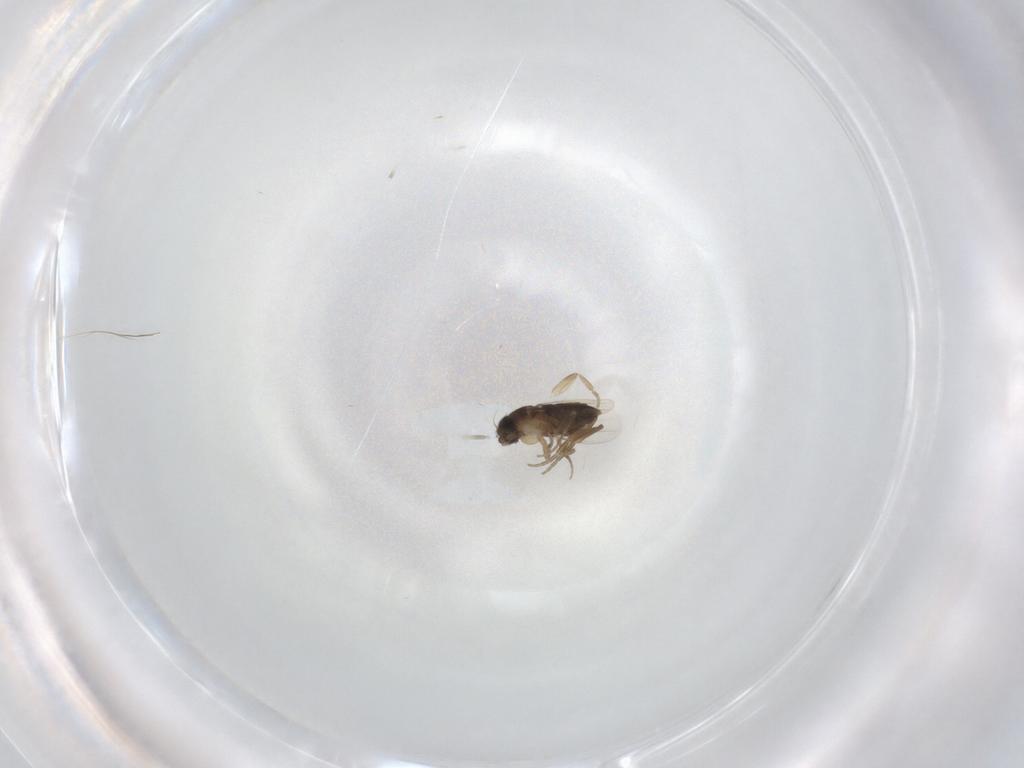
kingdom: Animalia
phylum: Arthropoda
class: Insecta
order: Diptera
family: Phoridae
